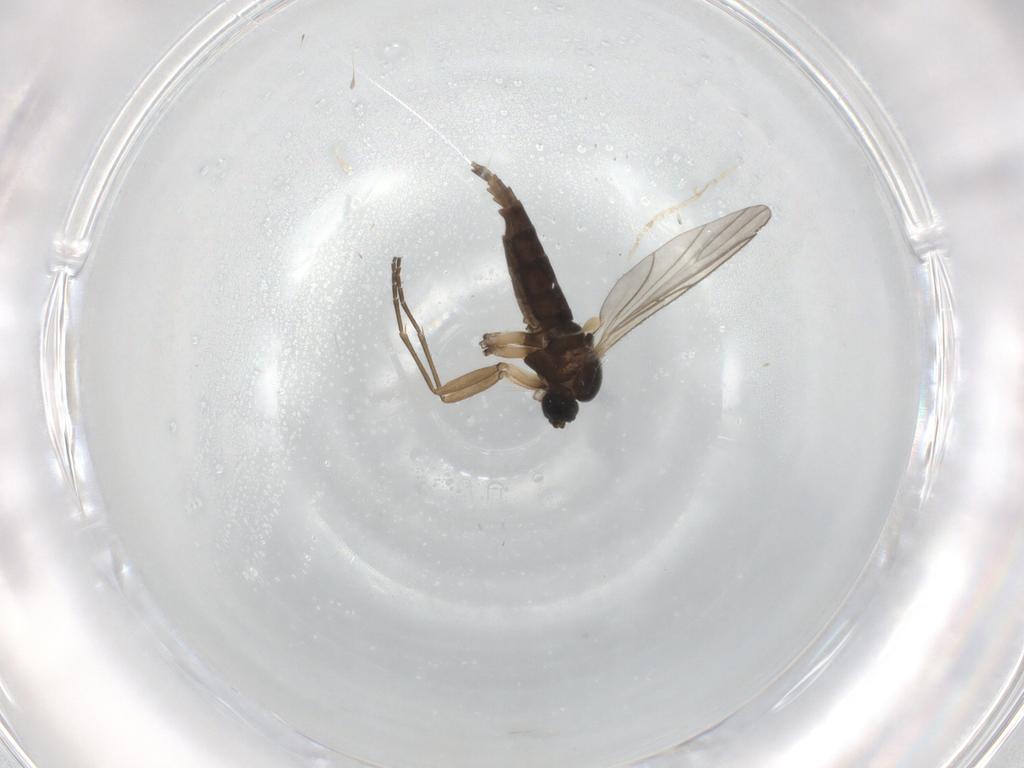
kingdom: Animalia
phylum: Arthropoda
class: Insecta
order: Diptera
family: Sciaridae
